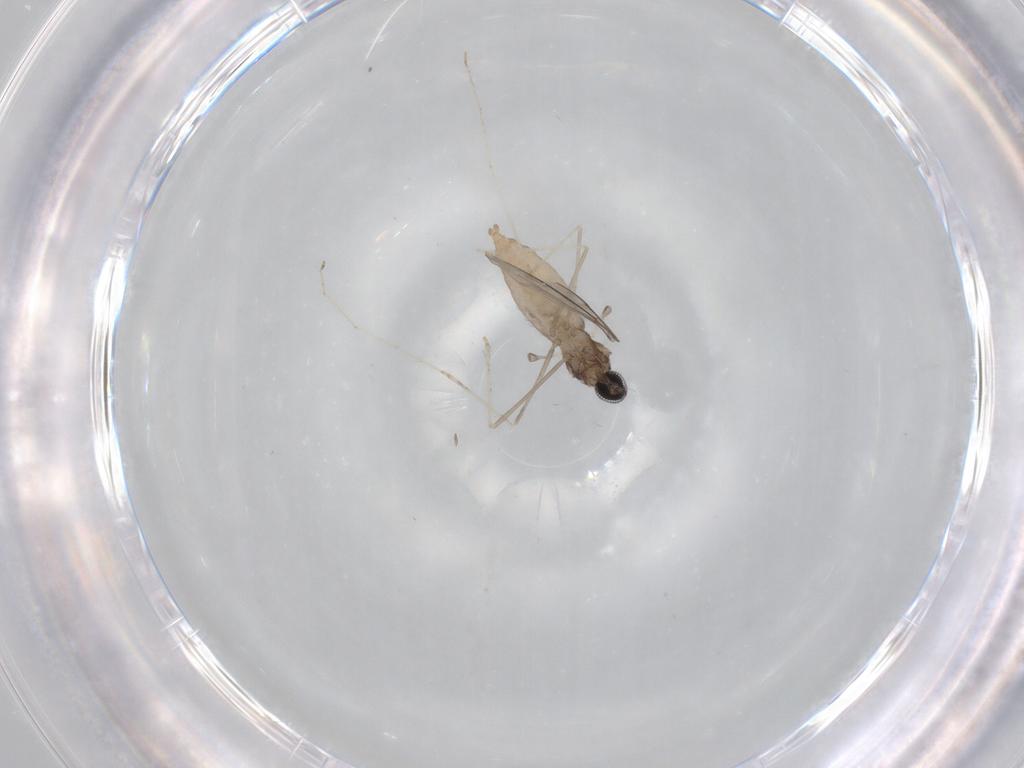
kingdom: Animalia
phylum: Arthropoda
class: Insecta
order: Diptera
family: Cecidomyiidae
